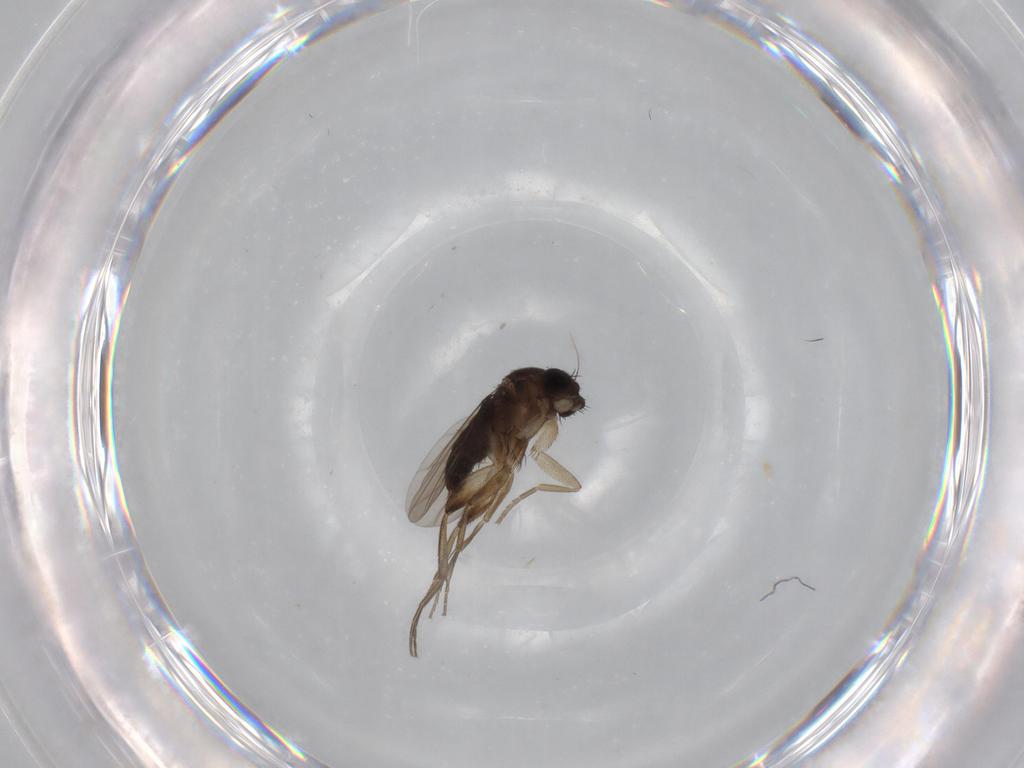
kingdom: Animalia
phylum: Arthropoda
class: Insecta
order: Diptera
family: Phoridae
